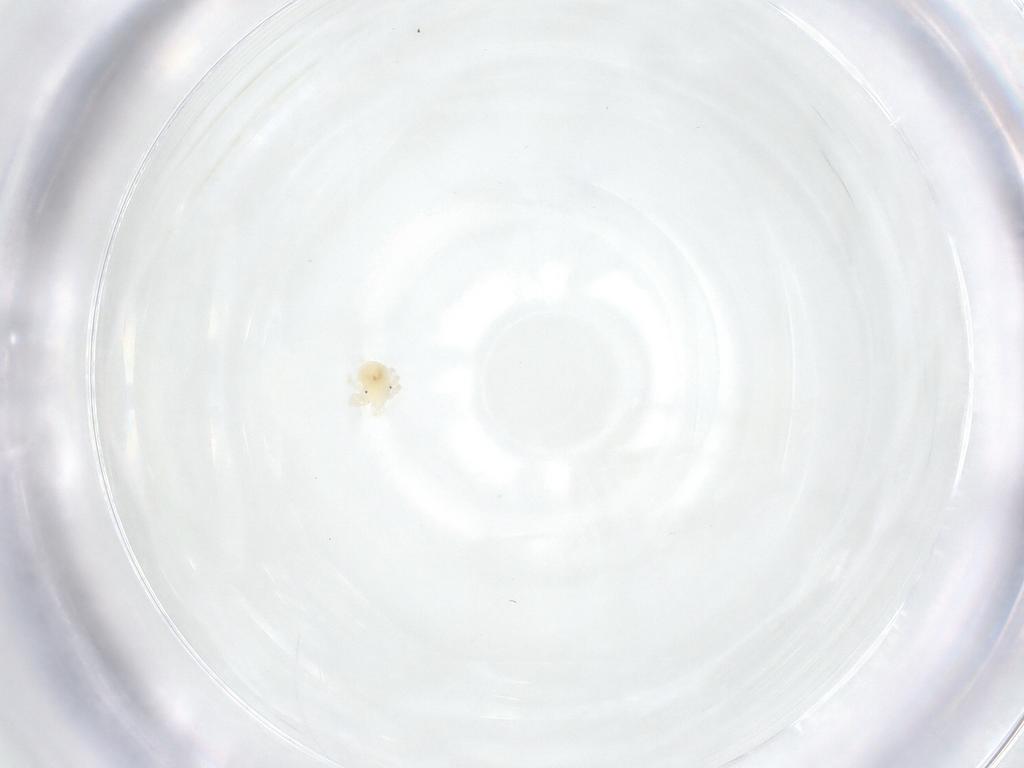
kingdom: Animalia
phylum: Arthropoda
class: Arachnida
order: Trombidiformes
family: Anystidae
